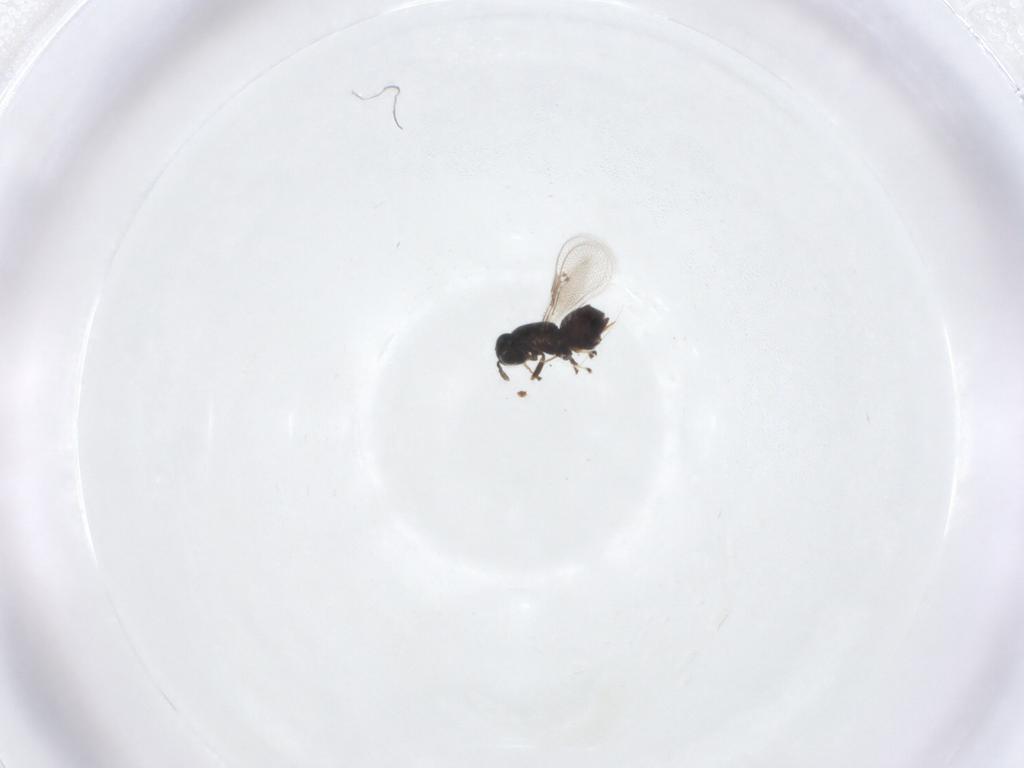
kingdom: Animalia
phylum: Arthropoda
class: Insecta
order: Hymenoptera
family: Eulophidae
